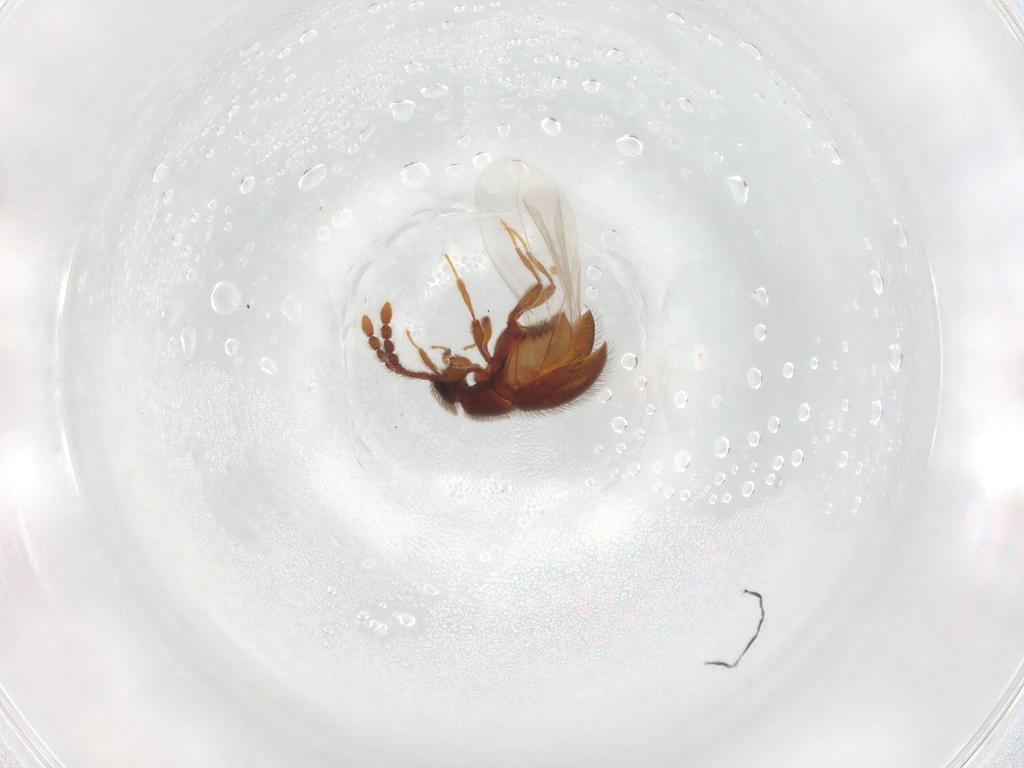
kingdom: Animalia
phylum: Arthropoda
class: Insecta
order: Coleoptera
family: Staphylinidae
